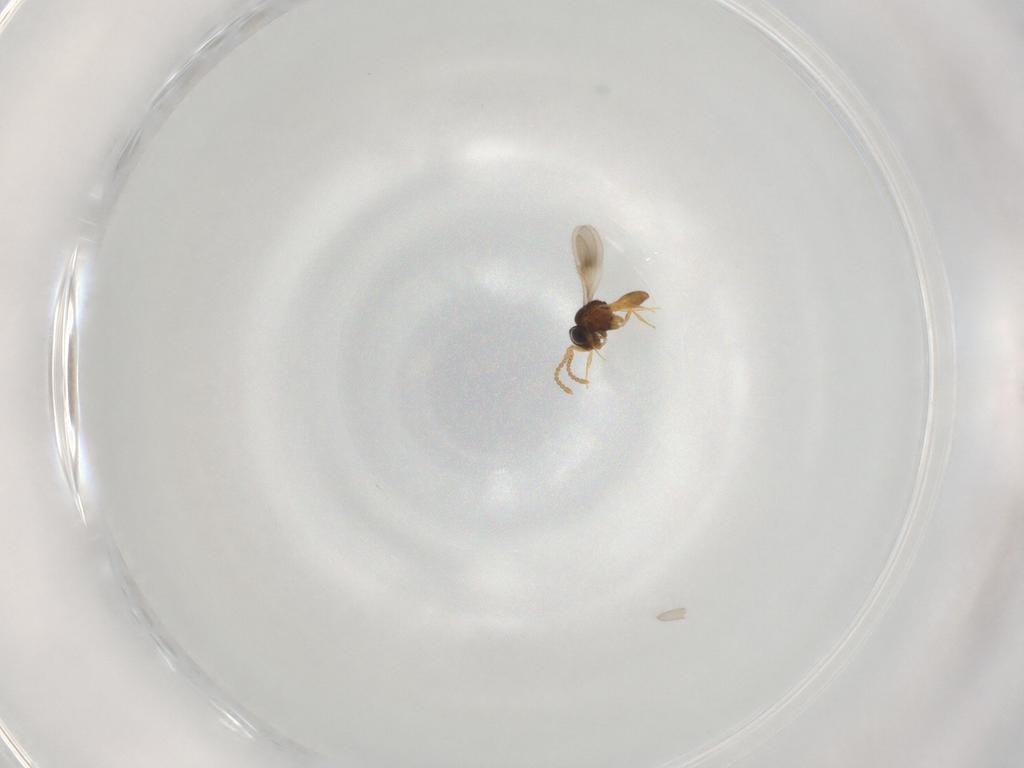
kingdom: Animalia
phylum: Arthropoda
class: Insecta
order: Hymenoptera
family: Scelionidae
